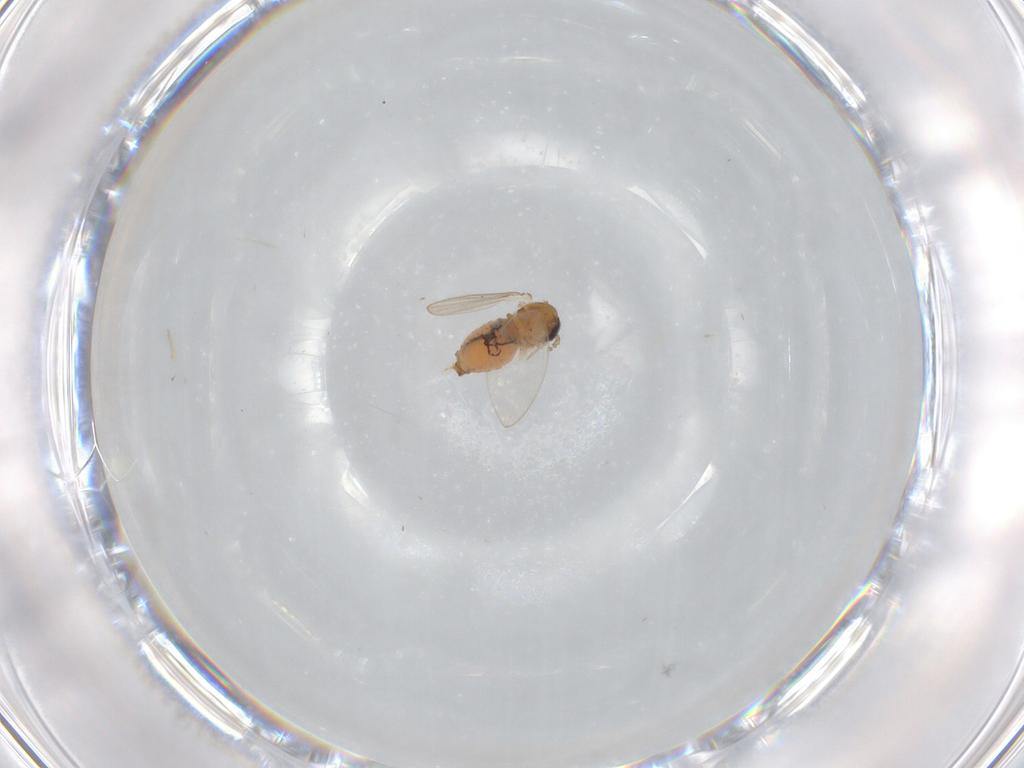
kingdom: Animalia
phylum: Arthropoda
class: Insecta
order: Diptera
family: Psychodidae
